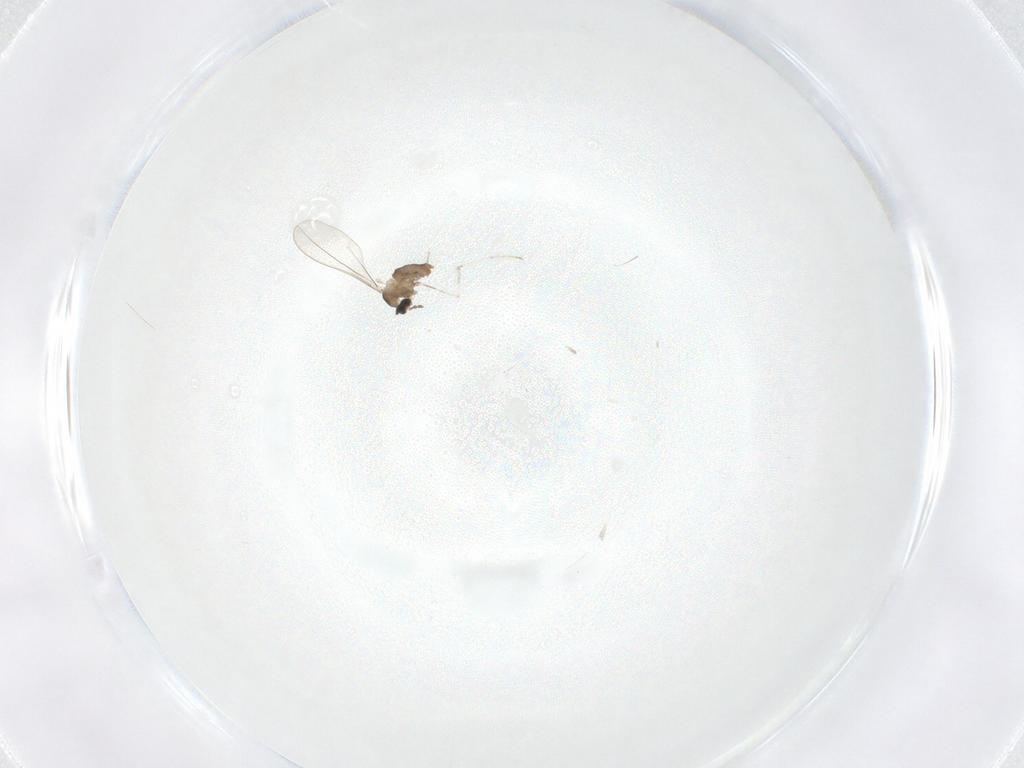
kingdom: Animalia
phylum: Arthropoda
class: Insecta
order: Diptera
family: Cecidomyiidae
